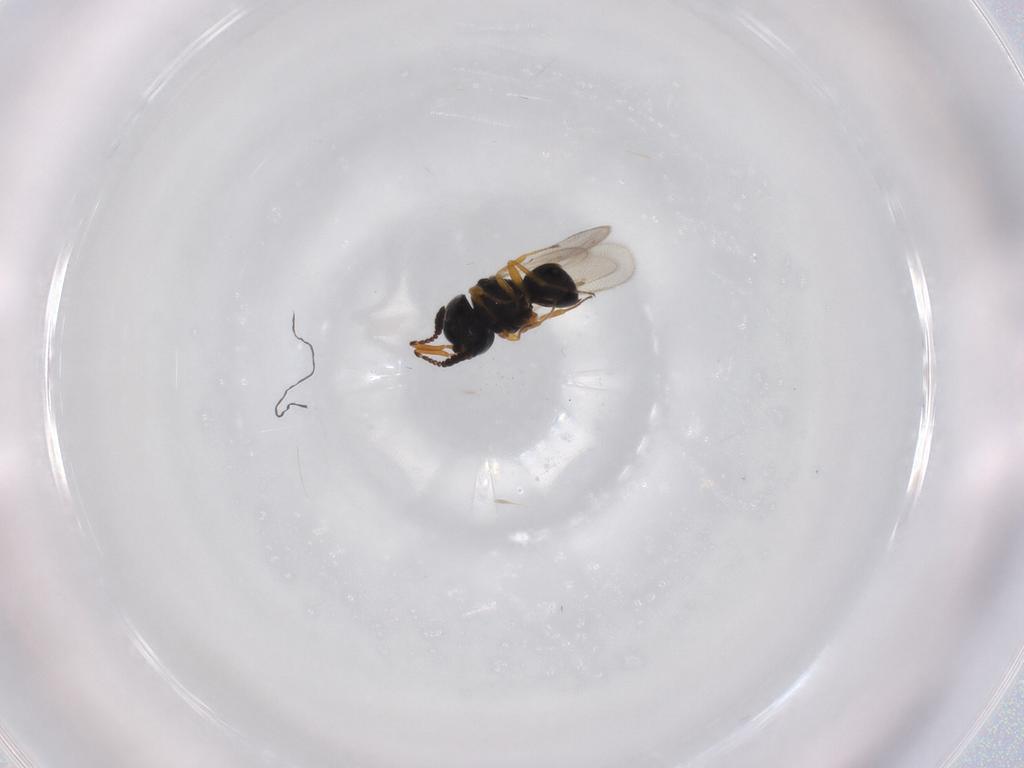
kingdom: Animalia
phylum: Arthropoda
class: Insecta
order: Hymenoptera
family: Scelionidae
